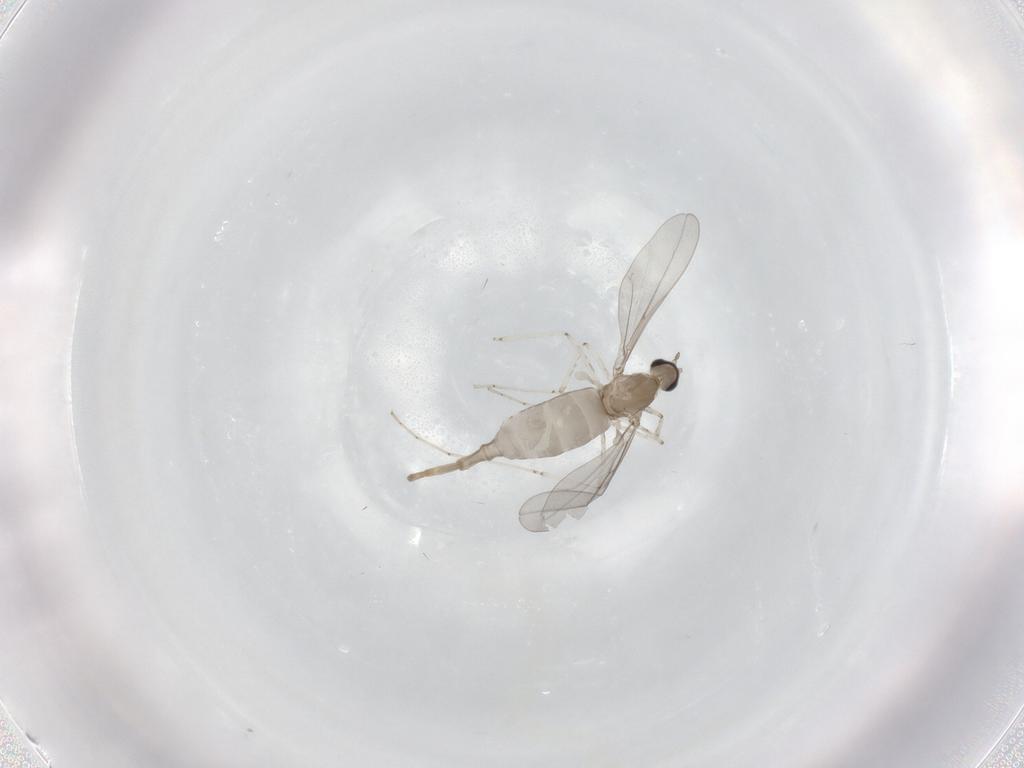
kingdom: Animalia
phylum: Arthropoda
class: Insecta
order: Diptera
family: Cecidomyiidae
